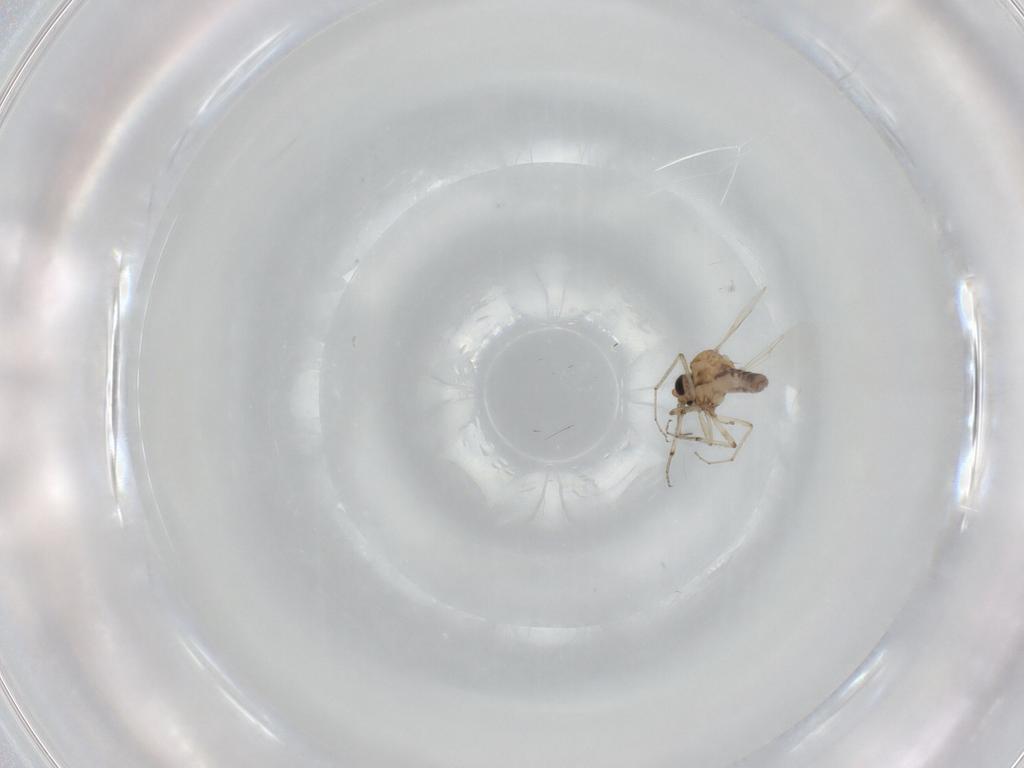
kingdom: Animalia
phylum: Arthropoda
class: Insecta
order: Diptera
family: Ceratopogonidae
